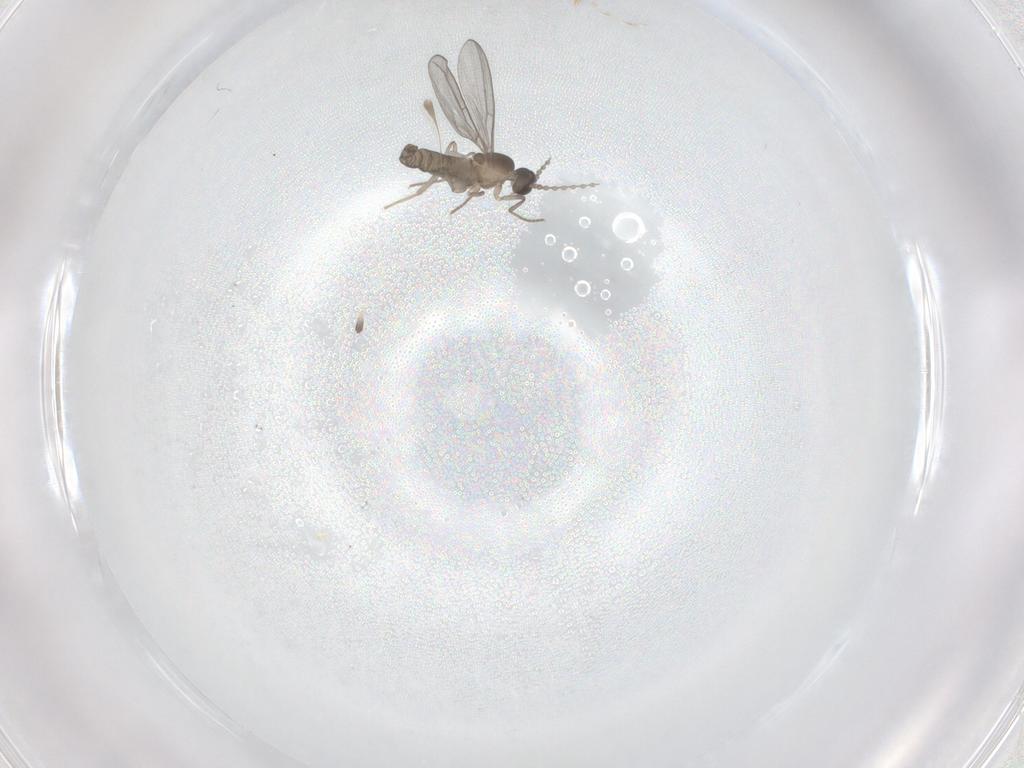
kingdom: Animalia
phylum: Arthropoda
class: Insecta
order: Diptera
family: Cecidomyiidae
